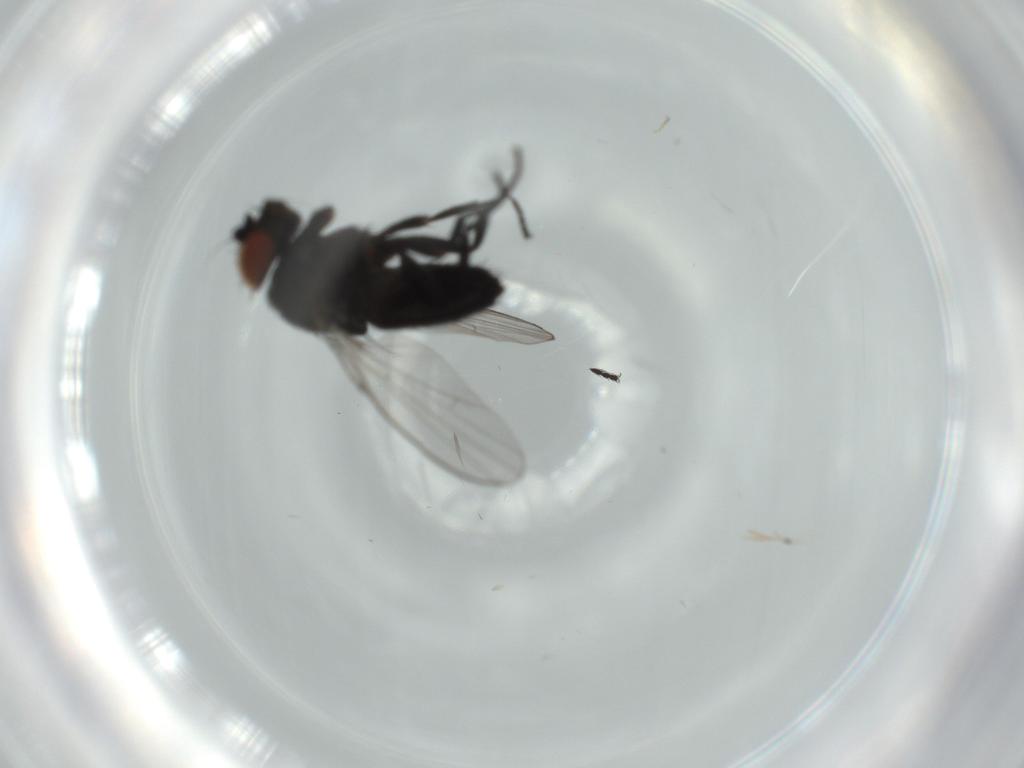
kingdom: Animalia
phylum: Arthropoda
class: Insecta
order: Diptera
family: Milichiidae
